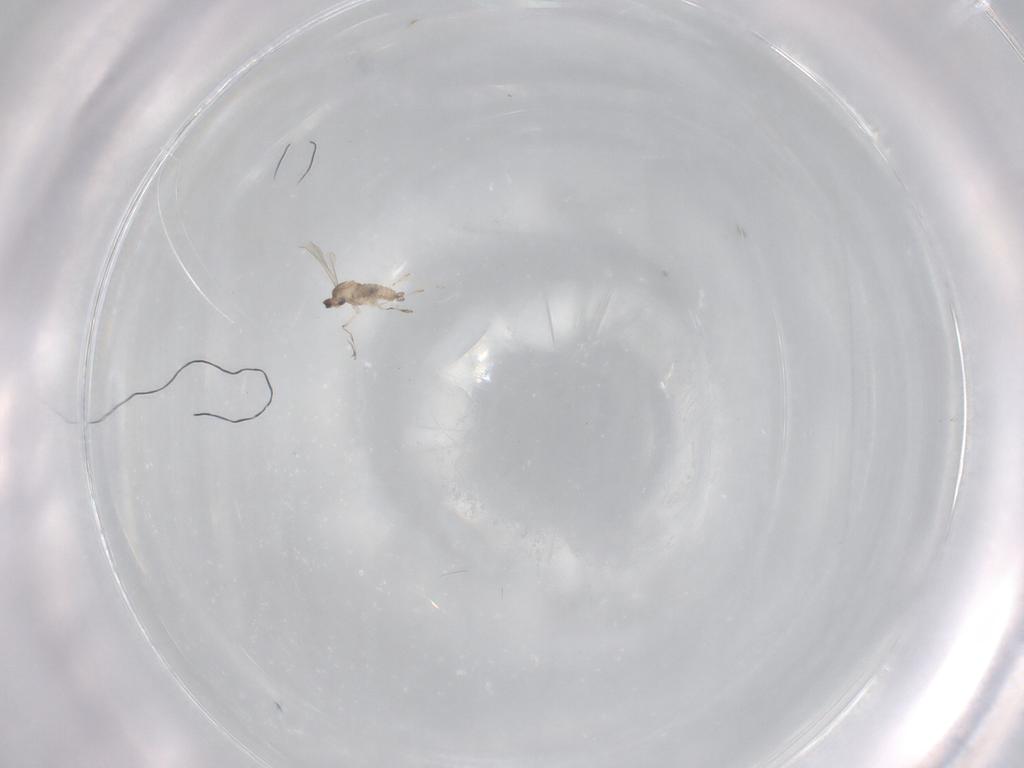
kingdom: Animalia
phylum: Arthropoda
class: Insecta
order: Diptera
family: Cecidomyiidae
